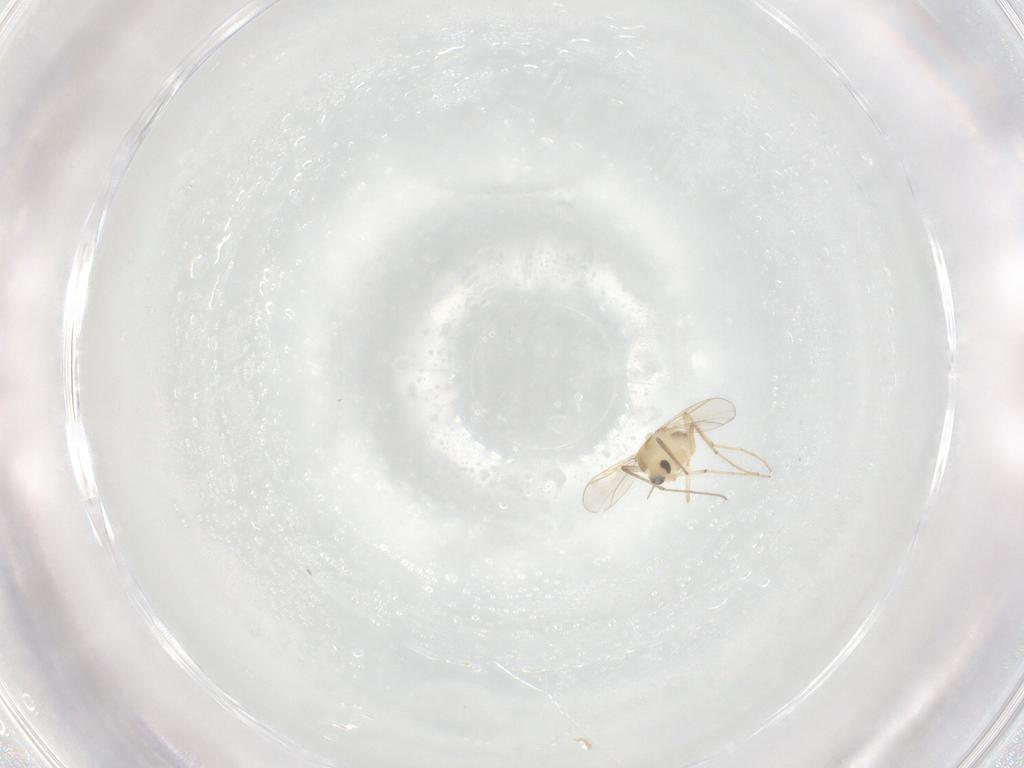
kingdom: Animalia
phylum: Arthropoda
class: Insecta
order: Diptera
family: Chironomidae
